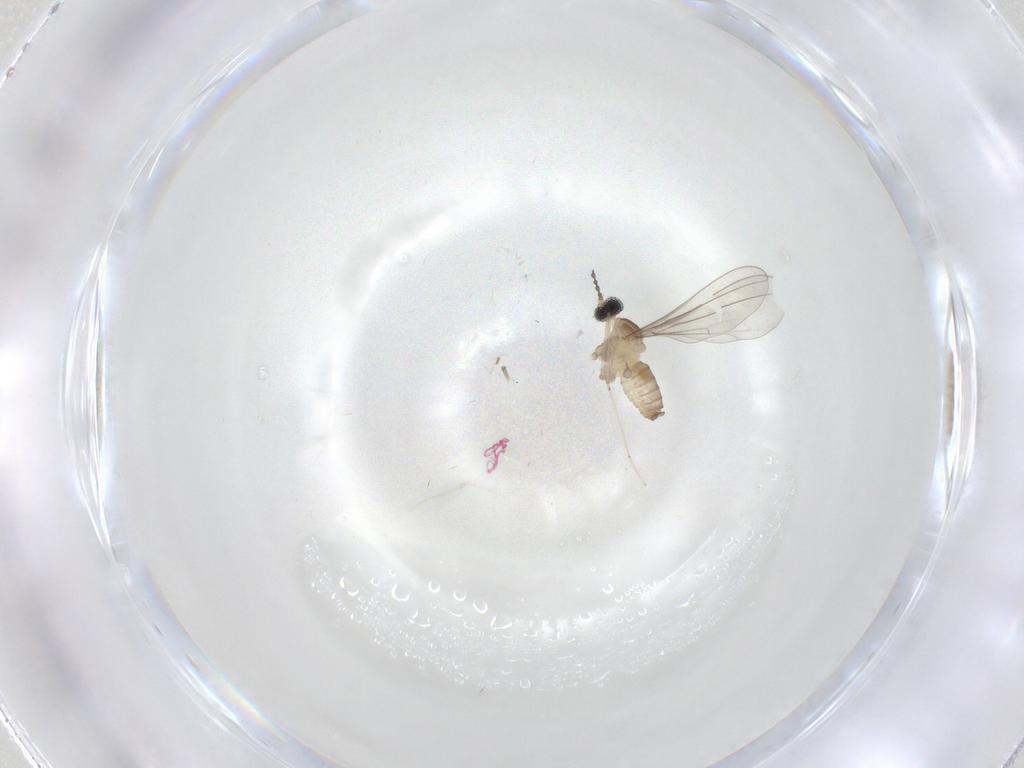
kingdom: Animalia
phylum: Arthropoda
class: Insecta
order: Diptera
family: Cecidomyiidae
